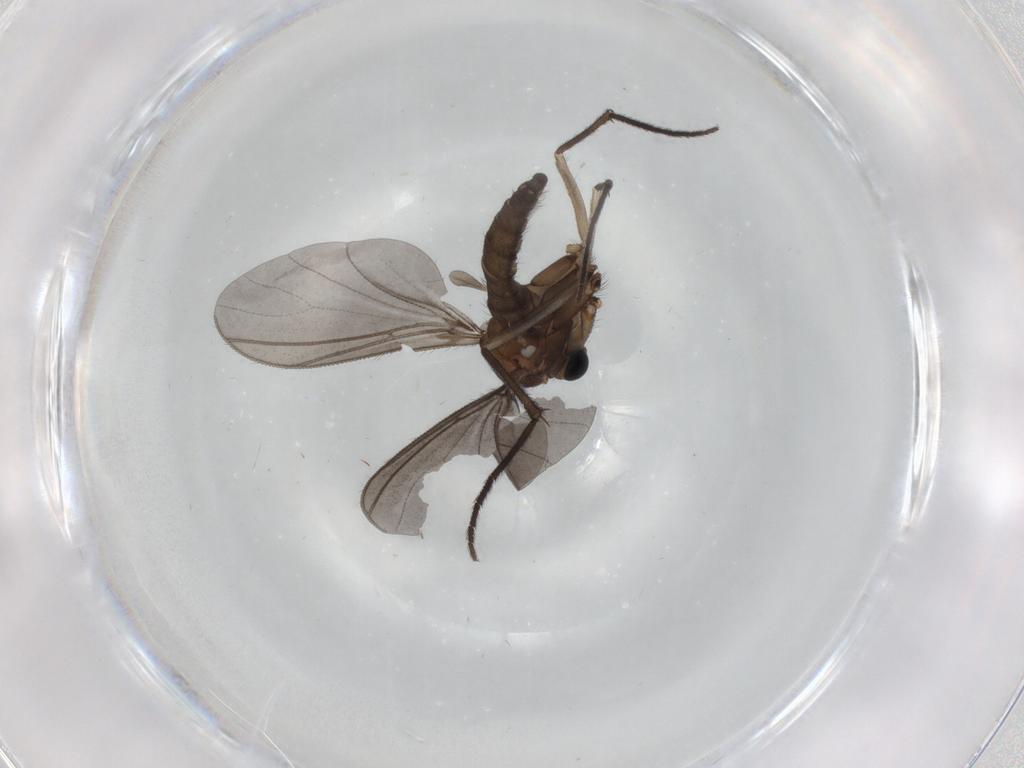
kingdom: Animalia
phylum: Arthropoda
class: Insecta
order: Diptera
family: Sciaridae
